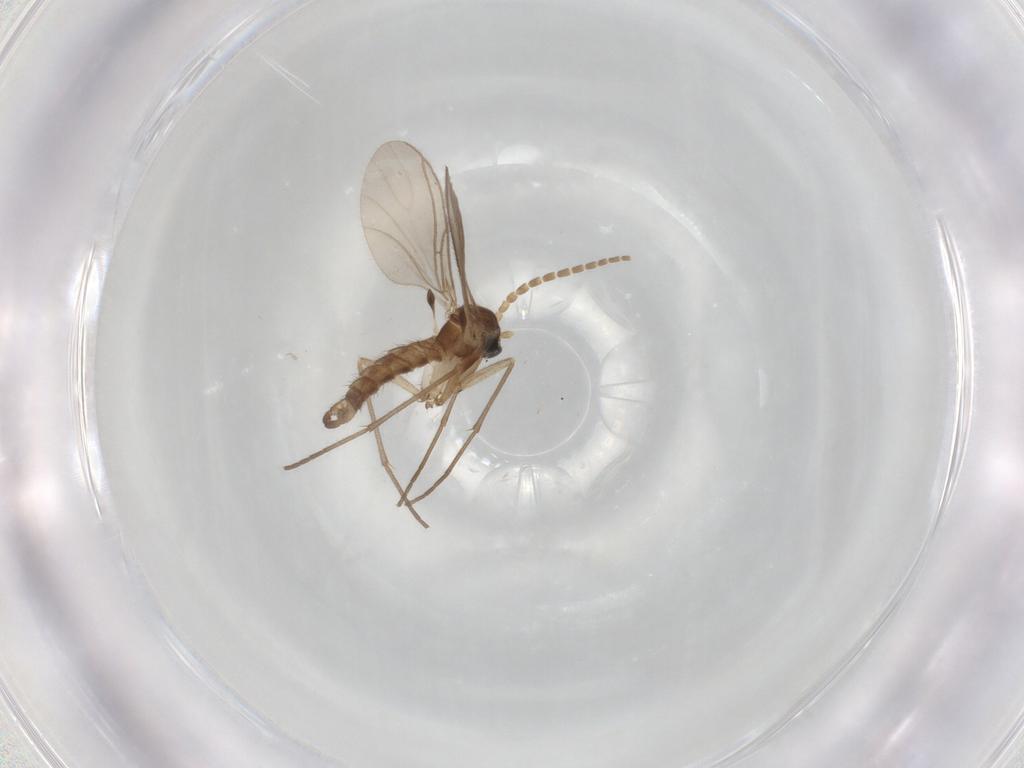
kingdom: Animalia
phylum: Arthropoda
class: Insecta
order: Diptera
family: Sciaridae
